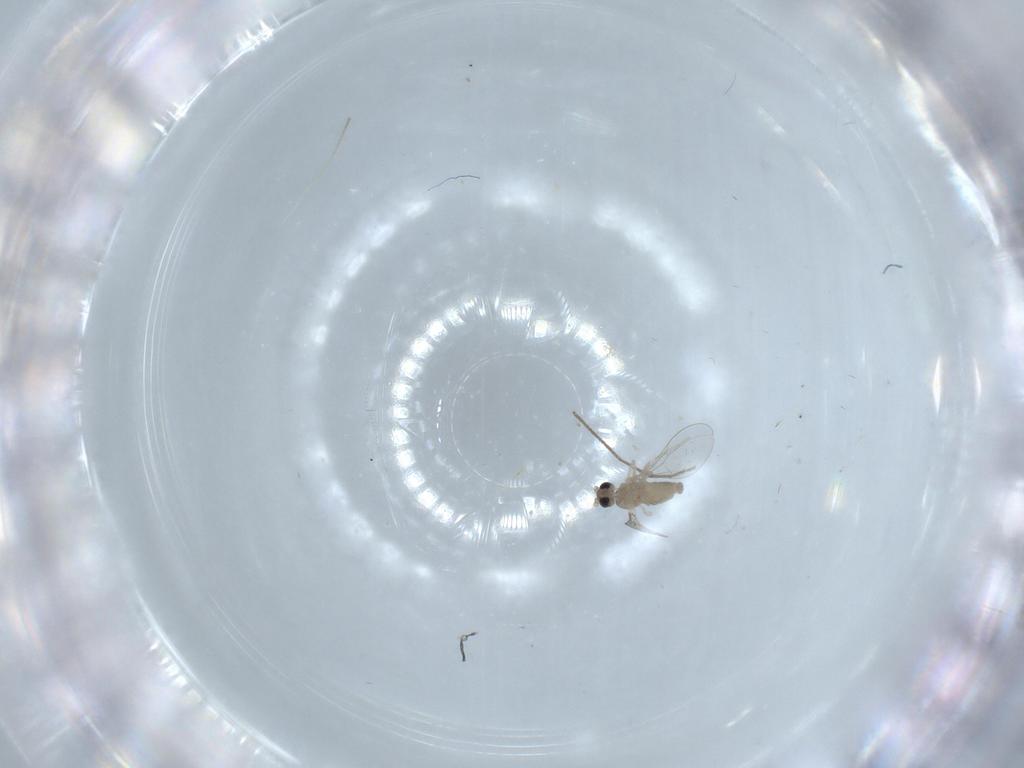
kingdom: Animalia
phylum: Arthropoda
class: Insecta
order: Diptera
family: Cecidomyiidae
